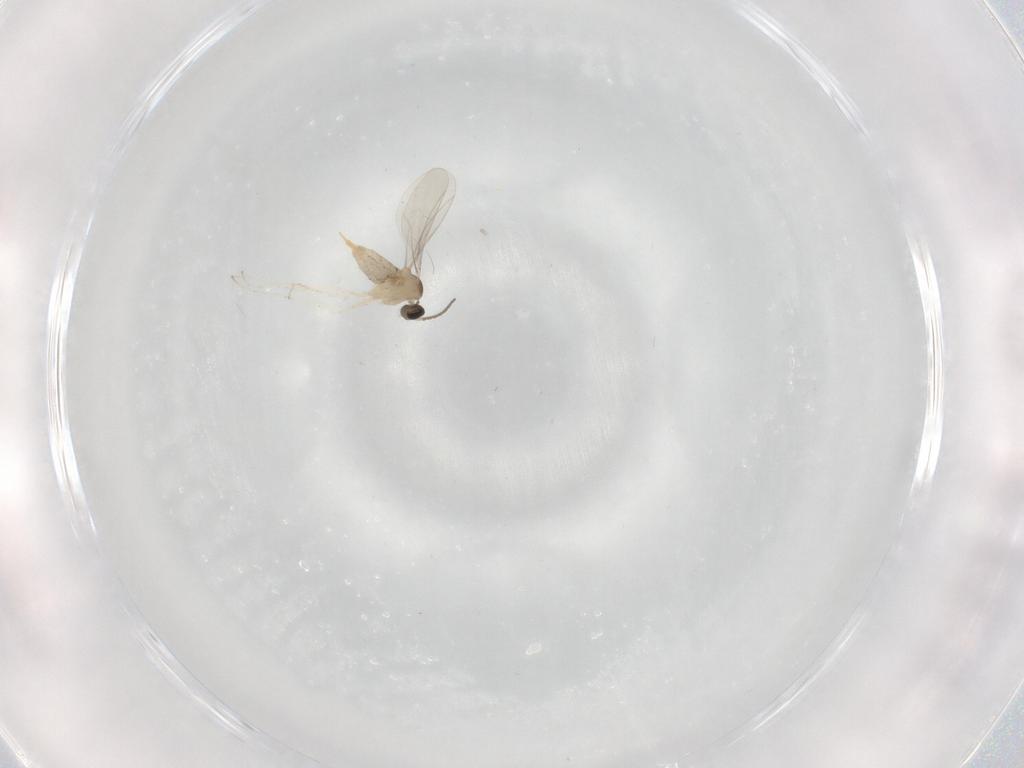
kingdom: Animalia
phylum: Arthropoda
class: Insecta
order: Diptera
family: Cecidomyiidae
